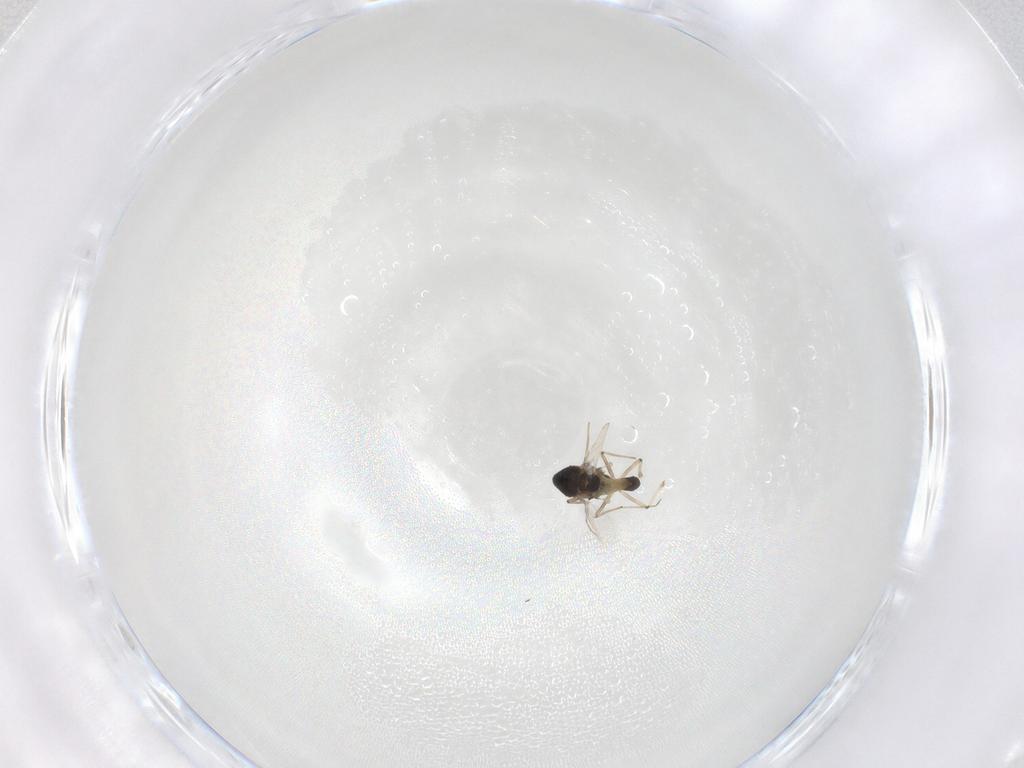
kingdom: Animalia
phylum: Arthropoda
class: Insecta
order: Diptera
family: Chironomidae
